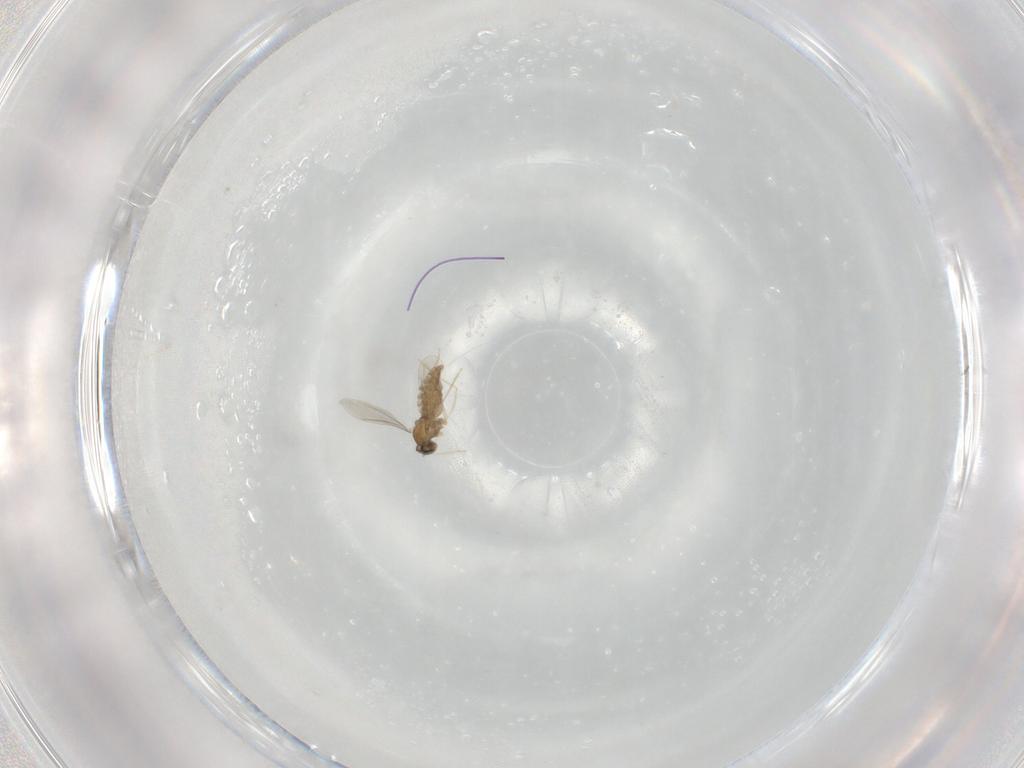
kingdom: Animalia
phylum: Arthropoda
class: Insecta
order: Diptera
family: Cecidomyiidae
